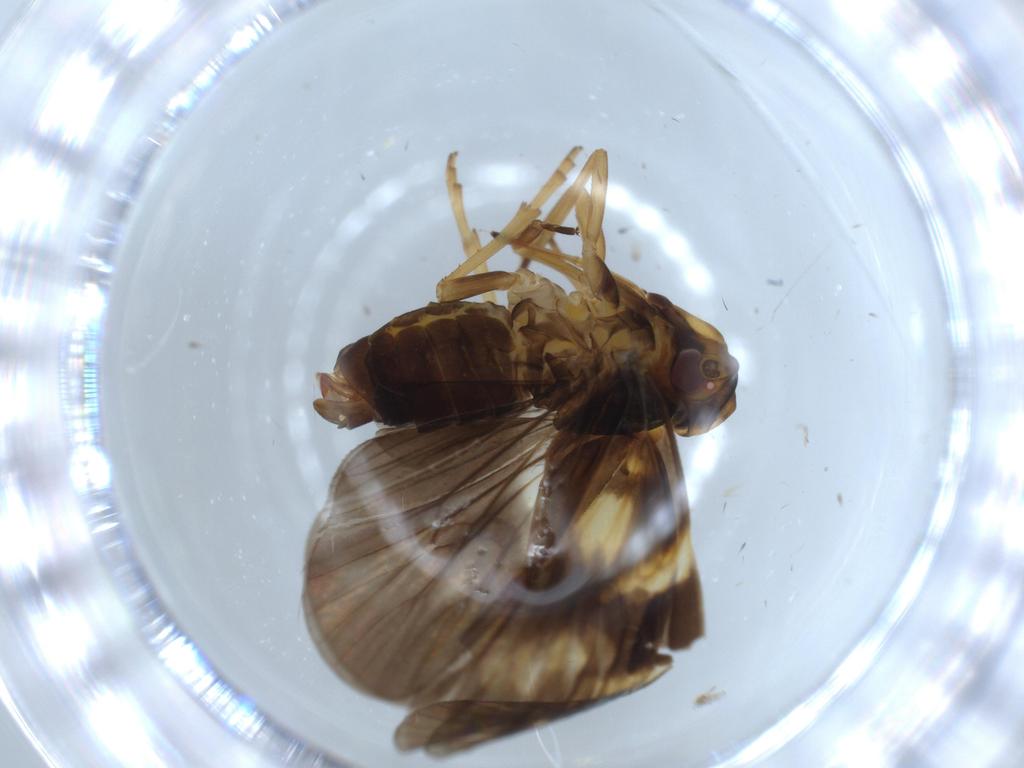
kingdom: Animalia
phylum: Arthropoda
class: Insecta
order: Hemiptera
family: Cixiidae
